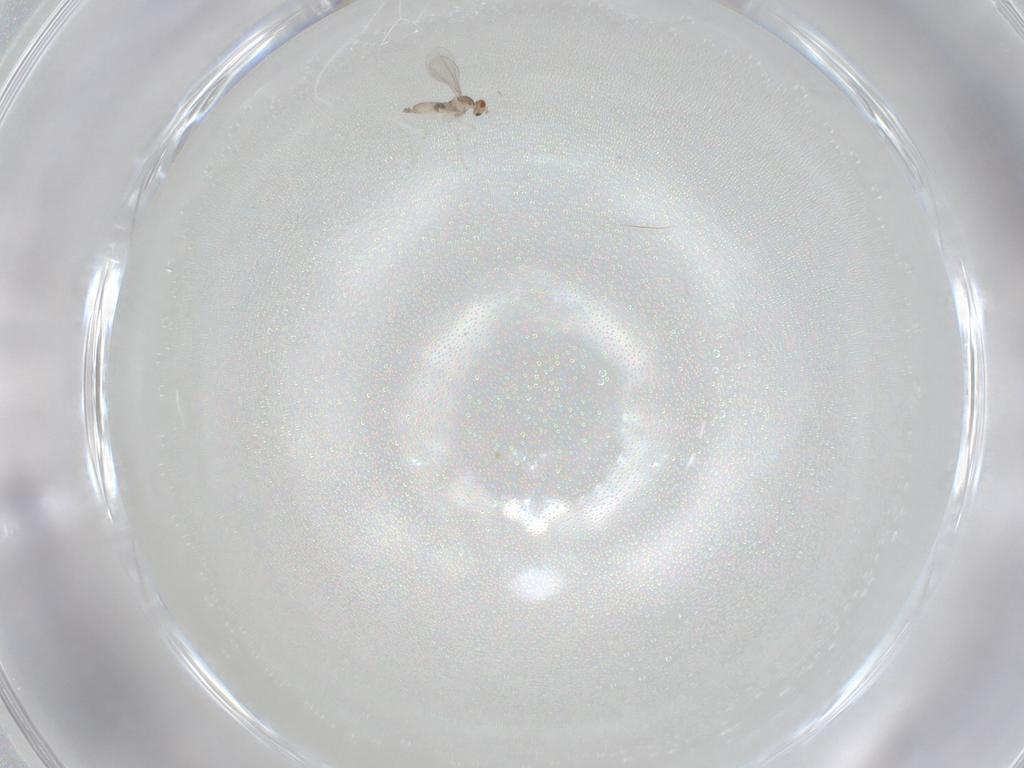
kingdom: Animalia
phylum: Arthropoda
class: Insecta
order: Diptera
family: Cecidomyiidae
